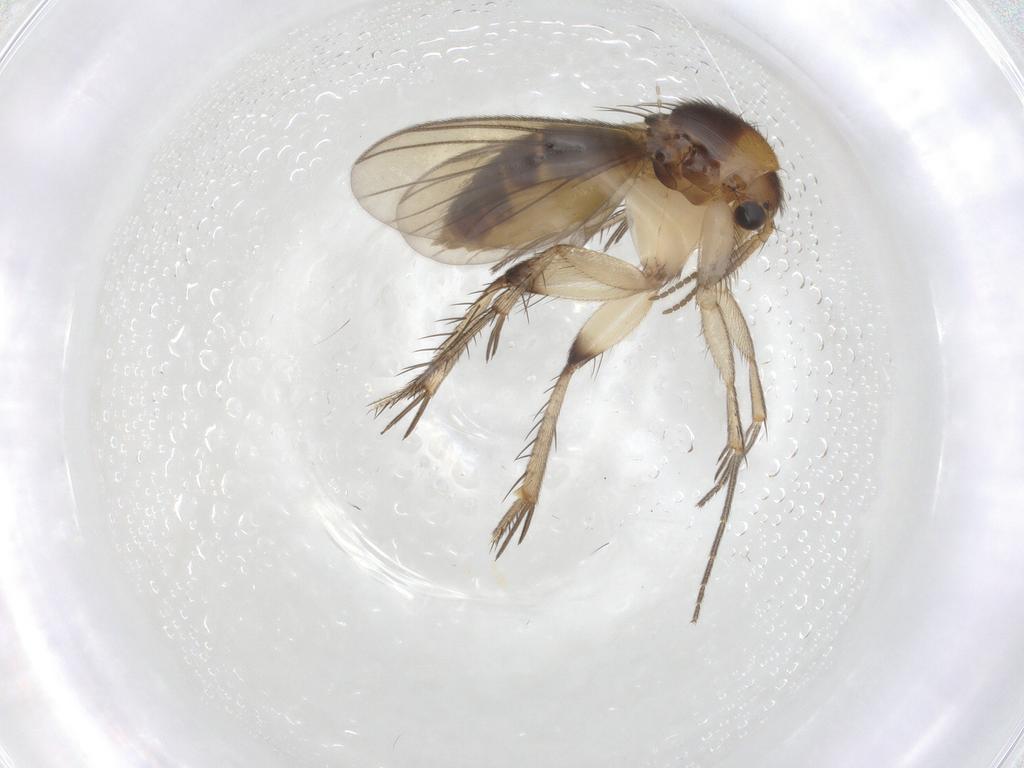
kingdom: Animalia
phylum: Arthropoda
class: Insecta
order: Diptera
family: Mycetophilidae
